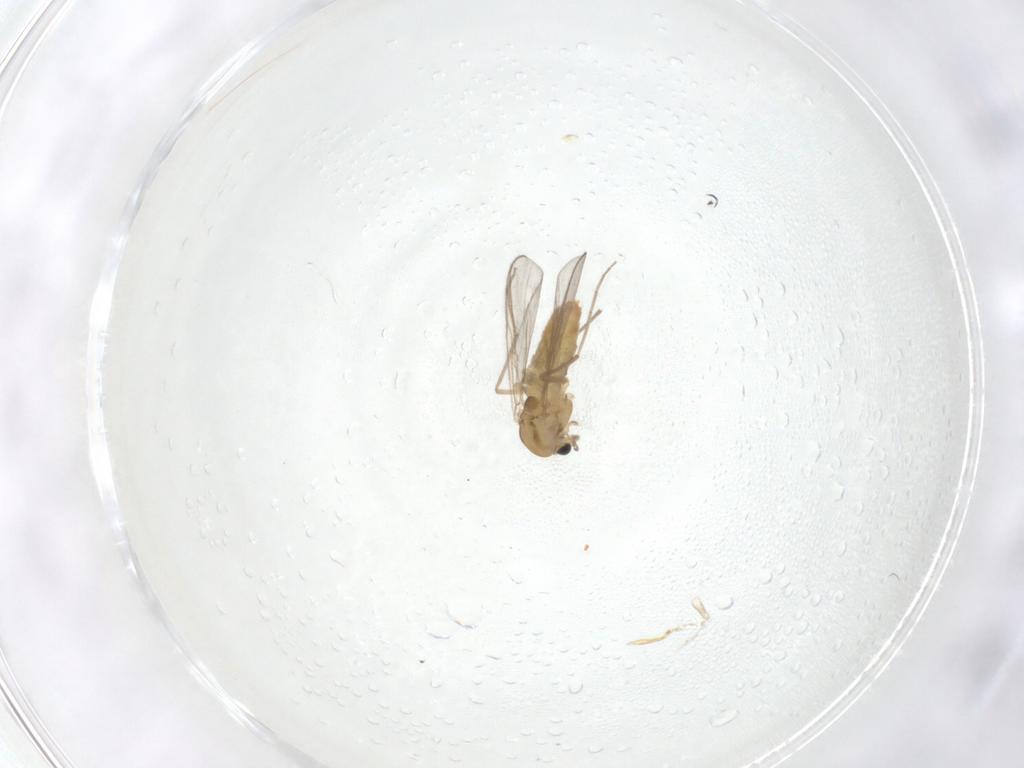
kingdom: Animalia
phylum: Arthropoda
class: Insecta
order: Diptera
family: Chironomidae
